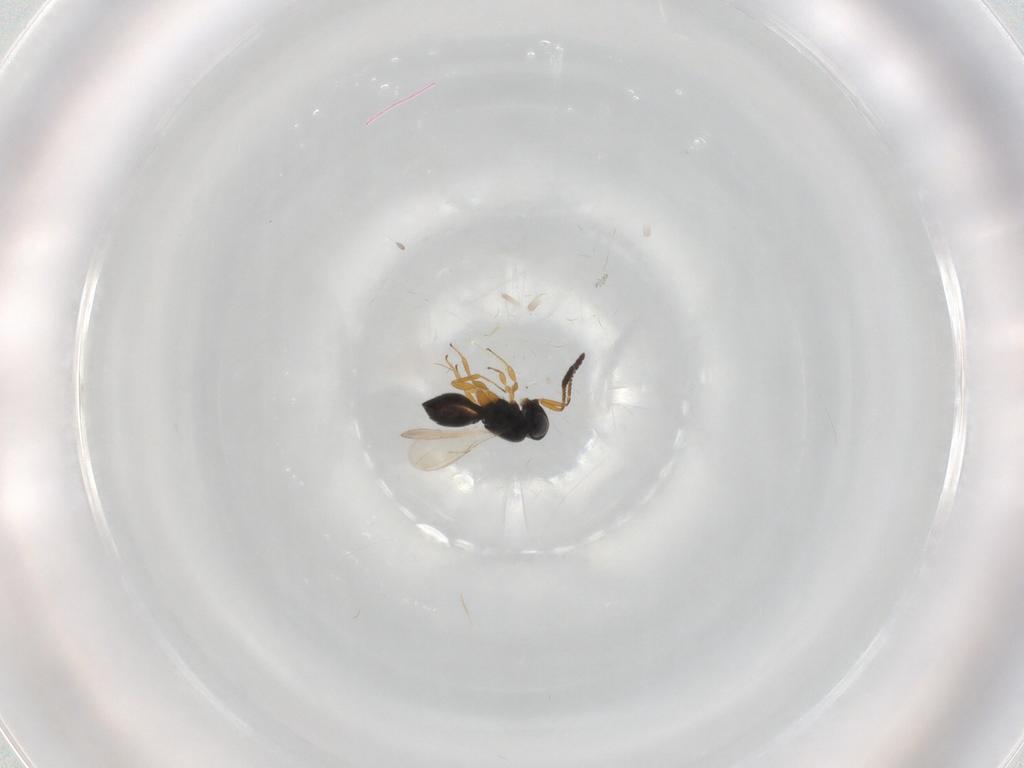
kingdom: Animalia
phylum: Arthropoda
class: Insecta
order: Hymenoptera
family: Scelionidae
